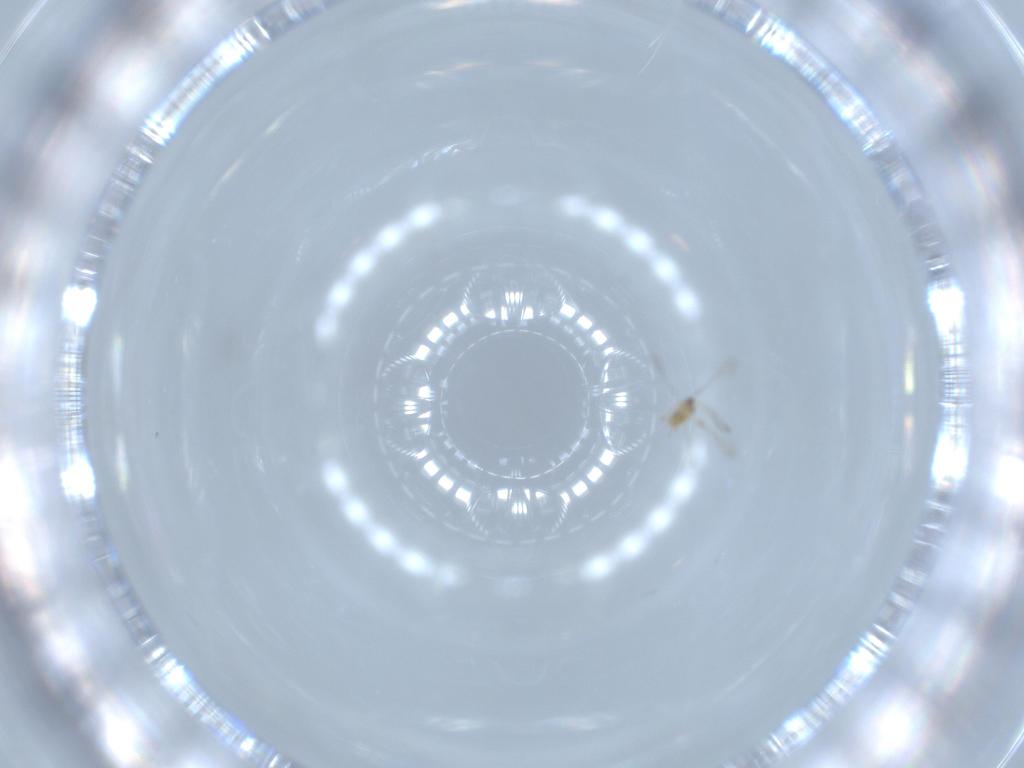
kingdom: Animalia
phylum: Arthropoda
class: Insecta
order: Hymenoptera
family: Mymaridae
